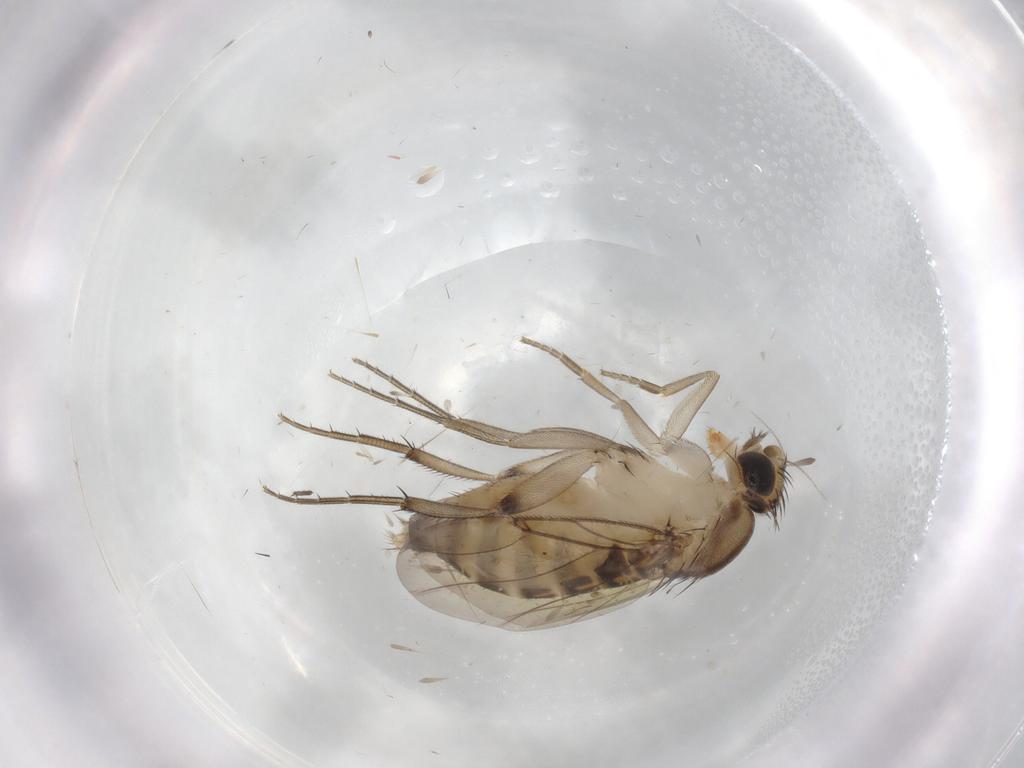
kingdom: Animalia
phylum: Arthropoda
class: Insecta
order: Diptera
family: Phoridae
